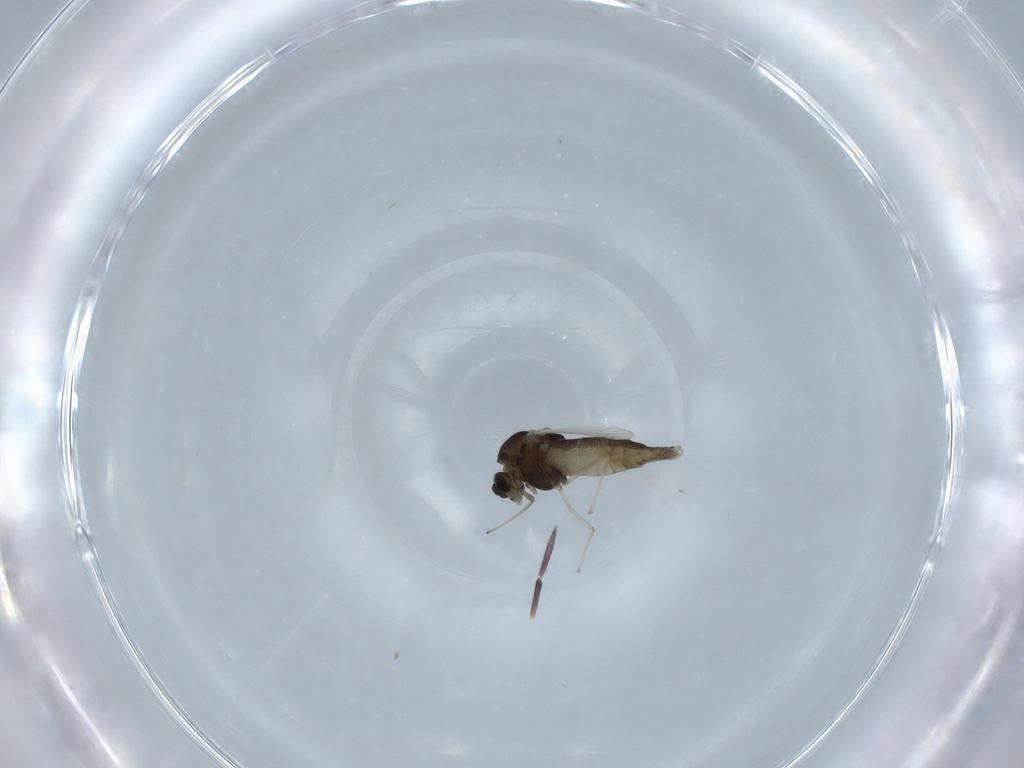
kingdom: Animalia
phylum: Arthropoda
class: Insecta
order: Diptera
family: Chironomidae
